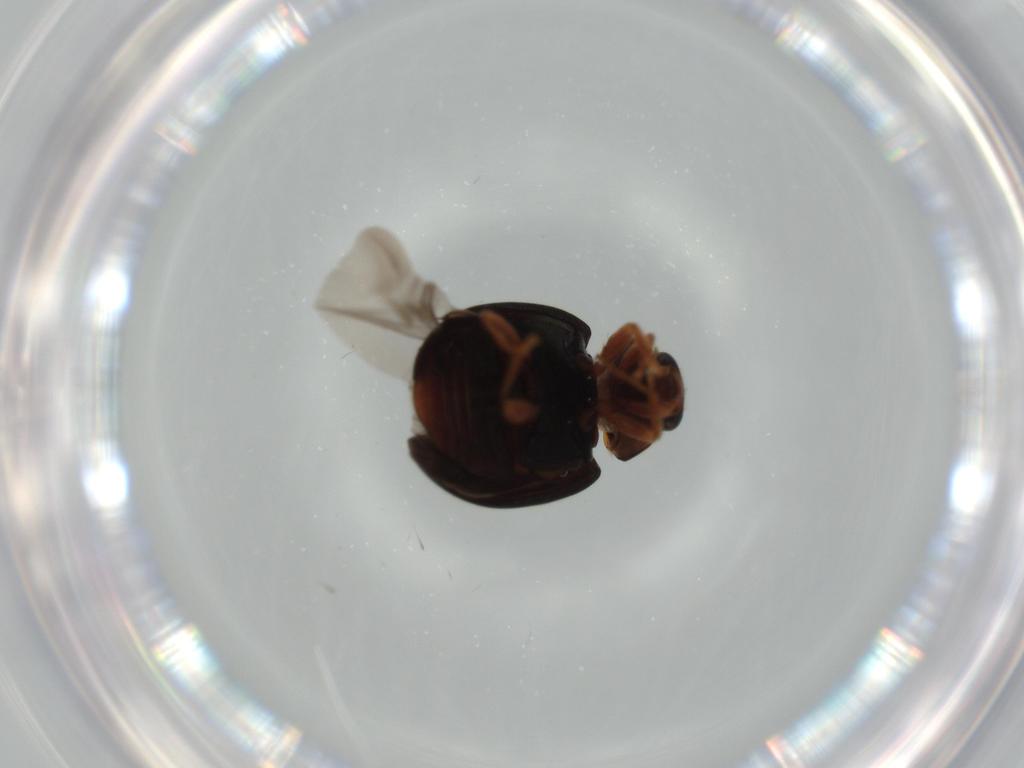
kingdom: Animalia
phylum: Arthropoda
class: Insecta
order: Coleoptera
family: Coccinellidae
